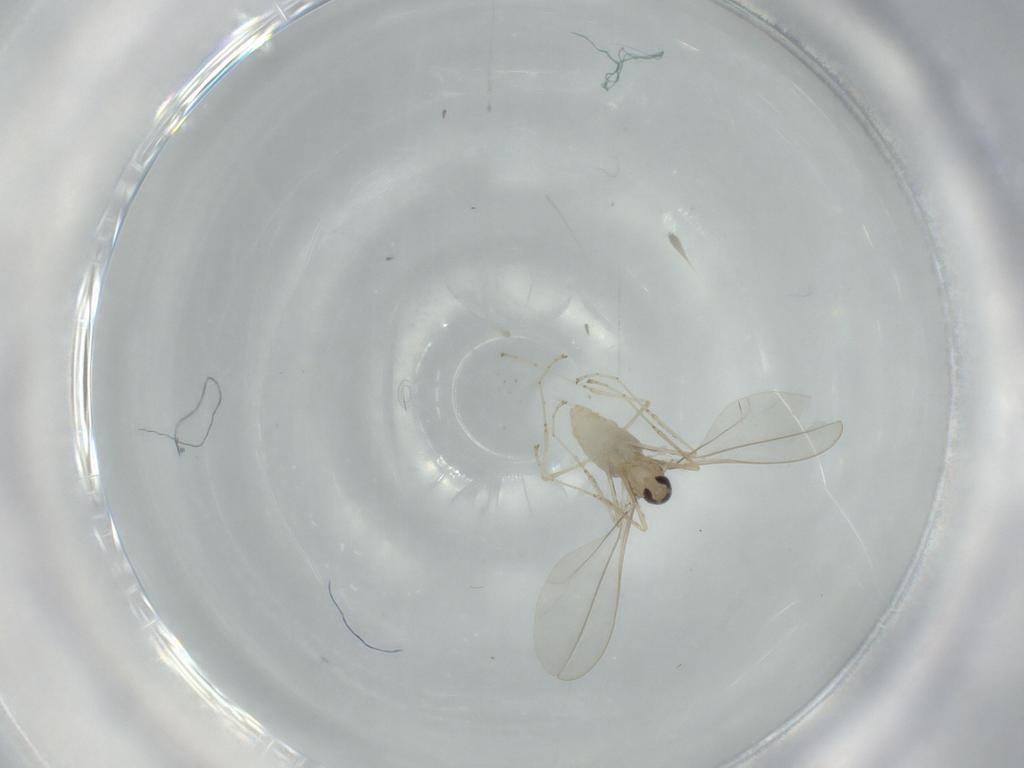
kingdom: Animalia
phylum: Arthropoda
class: Insecta
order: Diptera
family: Cecidomyiidae
